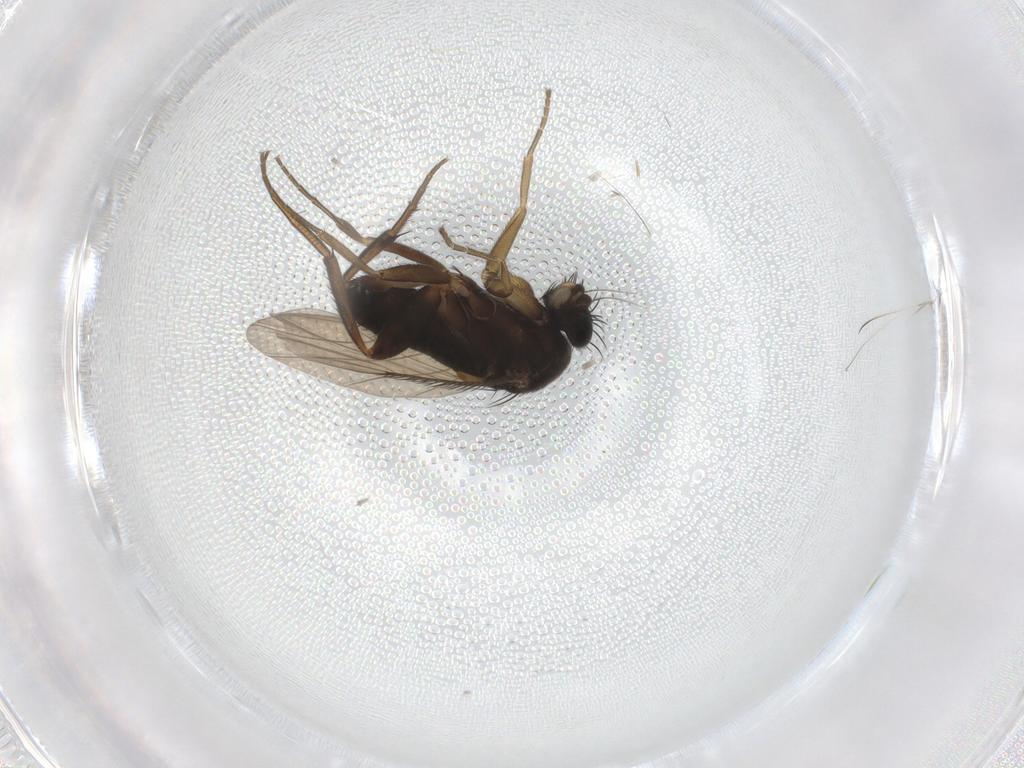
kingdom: Animalia
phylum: Arthropoda
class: Insecta
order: Diptera
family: Phoridae
